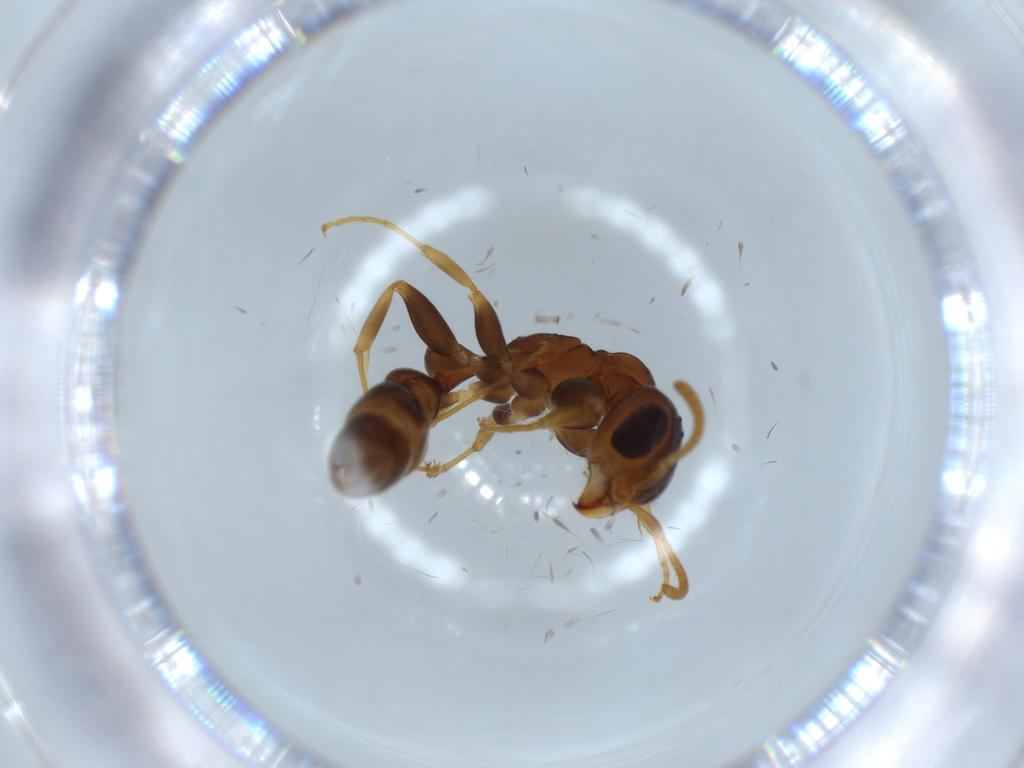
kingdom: Animalia
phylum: Arthropoda
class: Insecta
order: Hymenoptera
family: Formicidae
